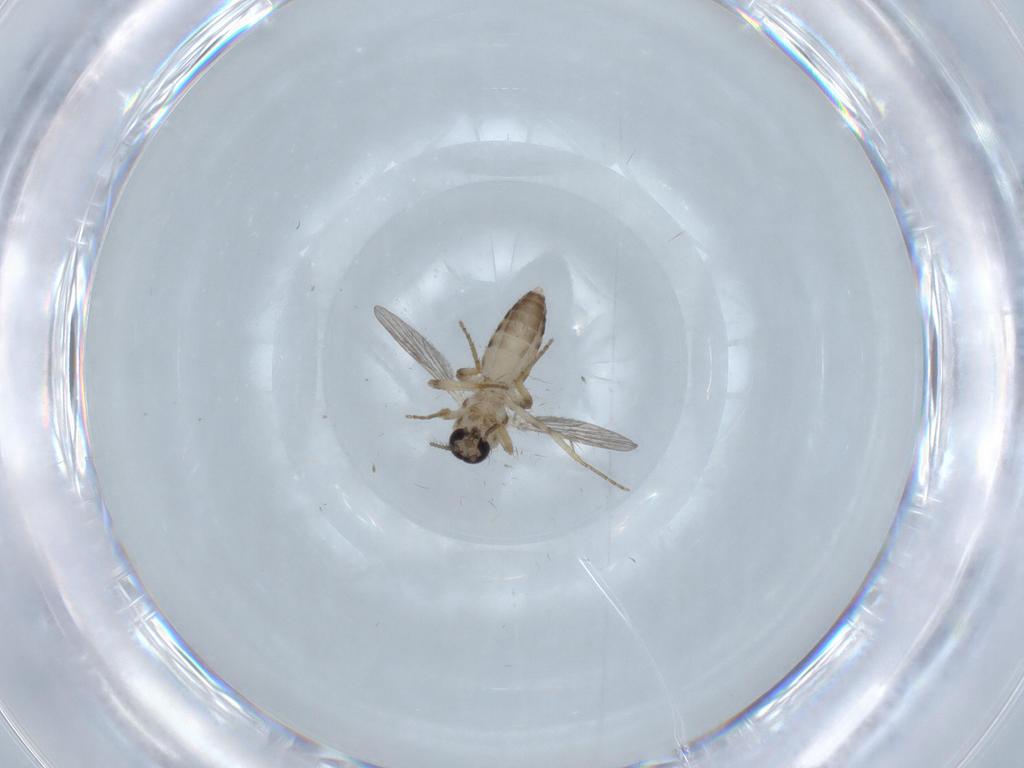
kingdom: Animalia
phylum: Arthropoda
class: Insecta
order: Diptera
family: Ceratopogonidae
